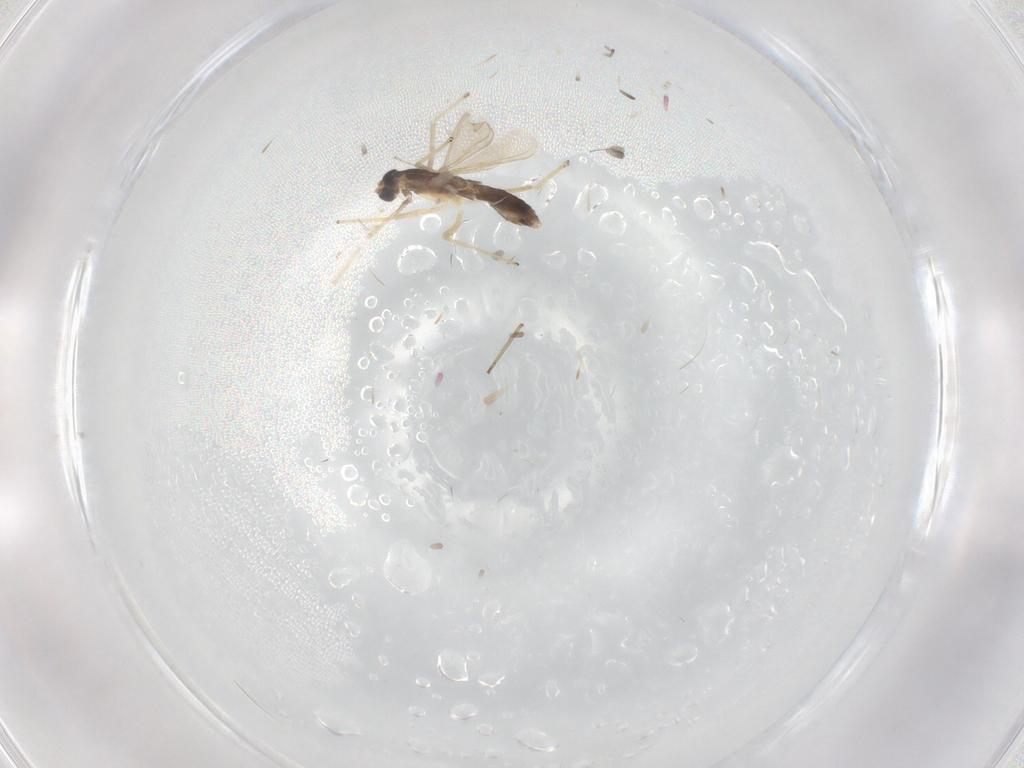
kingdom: Animalia
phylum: Arthropoda
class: Insecta
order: Diptera
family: Chironomidae
